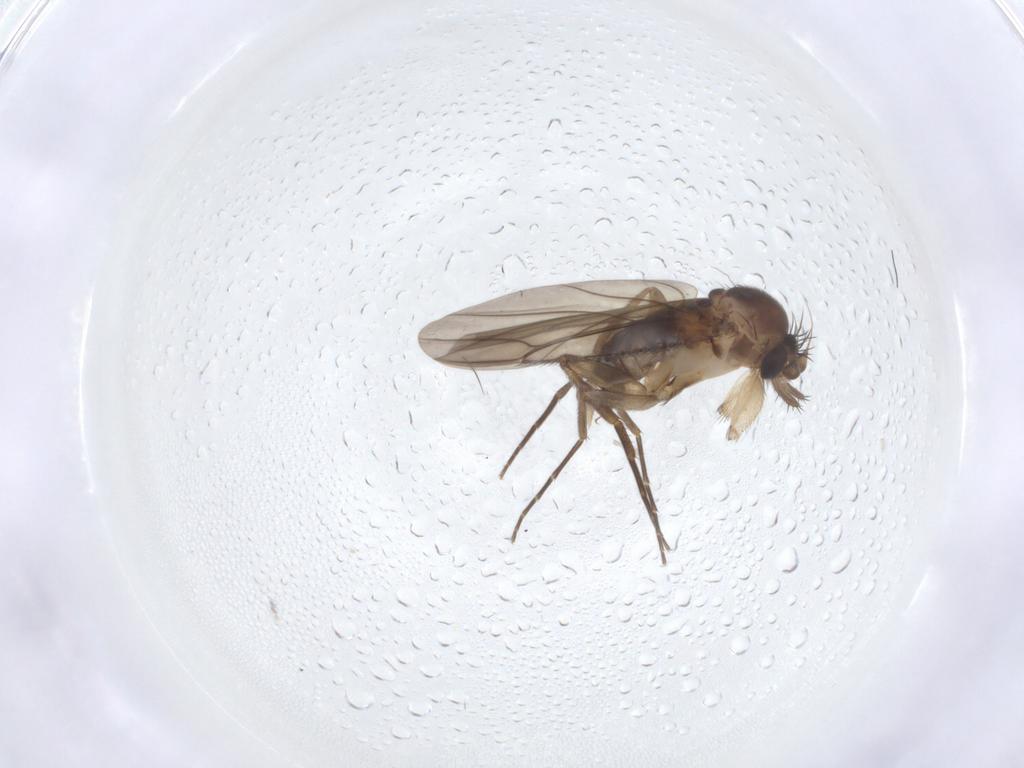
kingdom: Animalia
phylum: Arthropoda
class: Insecta
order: Diptera
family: Phoridae
